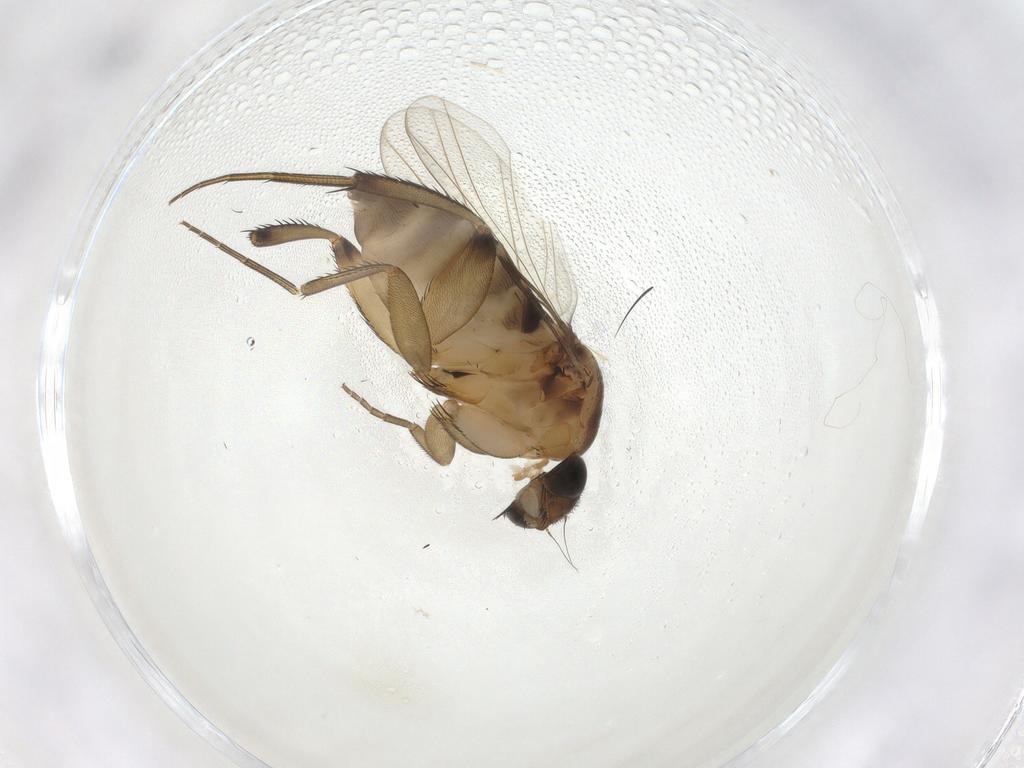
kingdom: Animalia
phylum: Arthropoda
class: Insecta
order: Diptera
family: Phoridae
